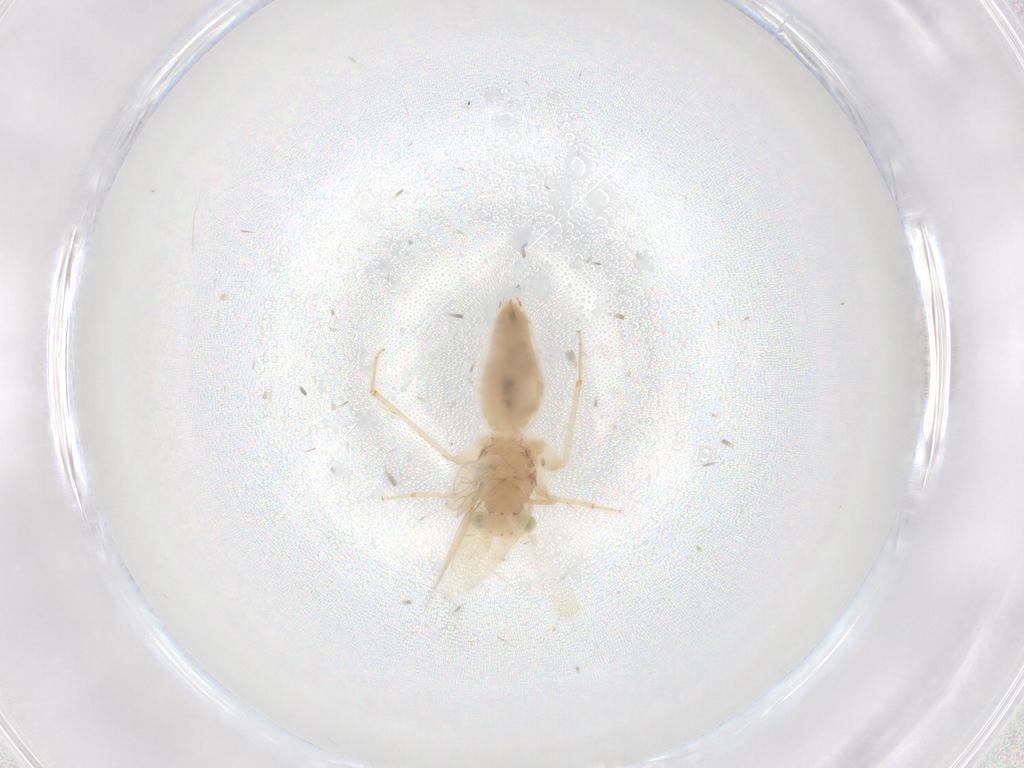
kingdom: Animalia
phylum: Arthropoda
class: Insecta
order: Psocodea
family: Lepidopsocidae
